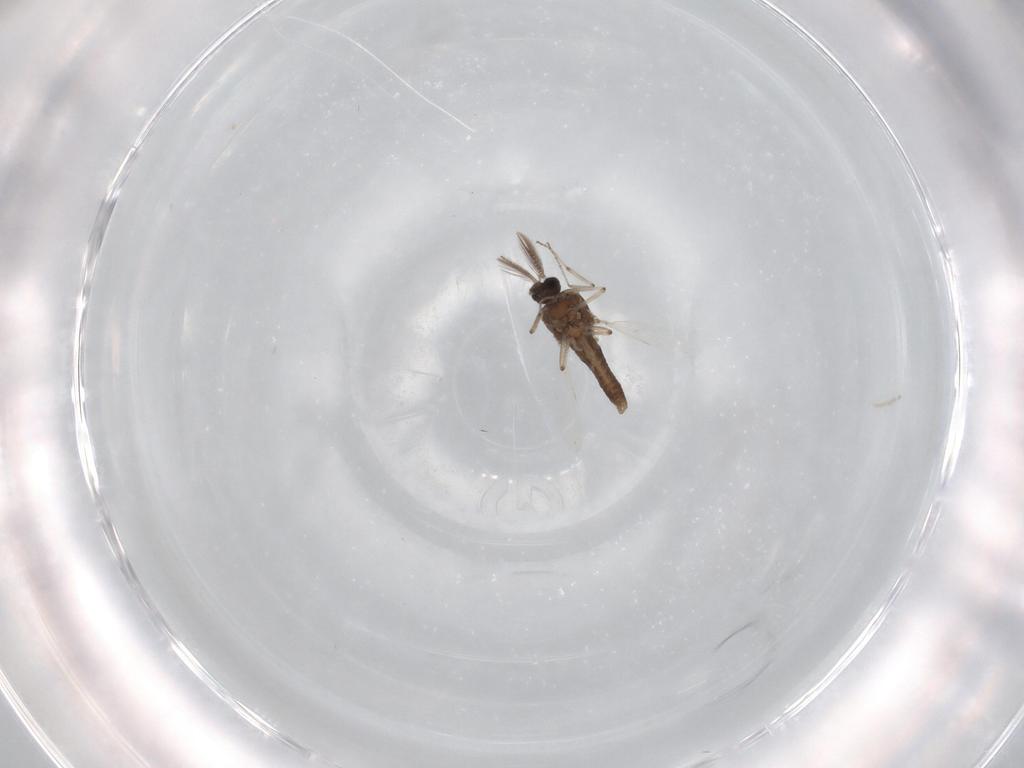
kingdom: Animalia
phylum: Arthropoda
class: Insecta
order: Diptera
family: Ceratopogonidae
